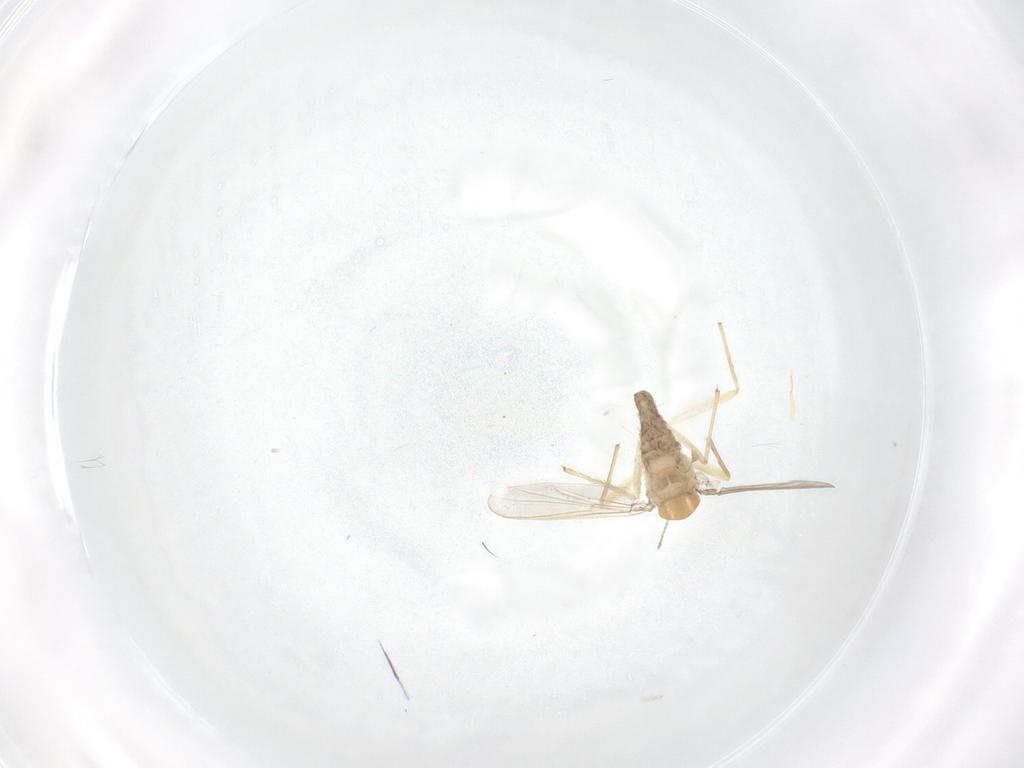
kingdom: Animalia
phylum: Arthropoda
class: Insecta
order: Diptera
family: Chironomidae
